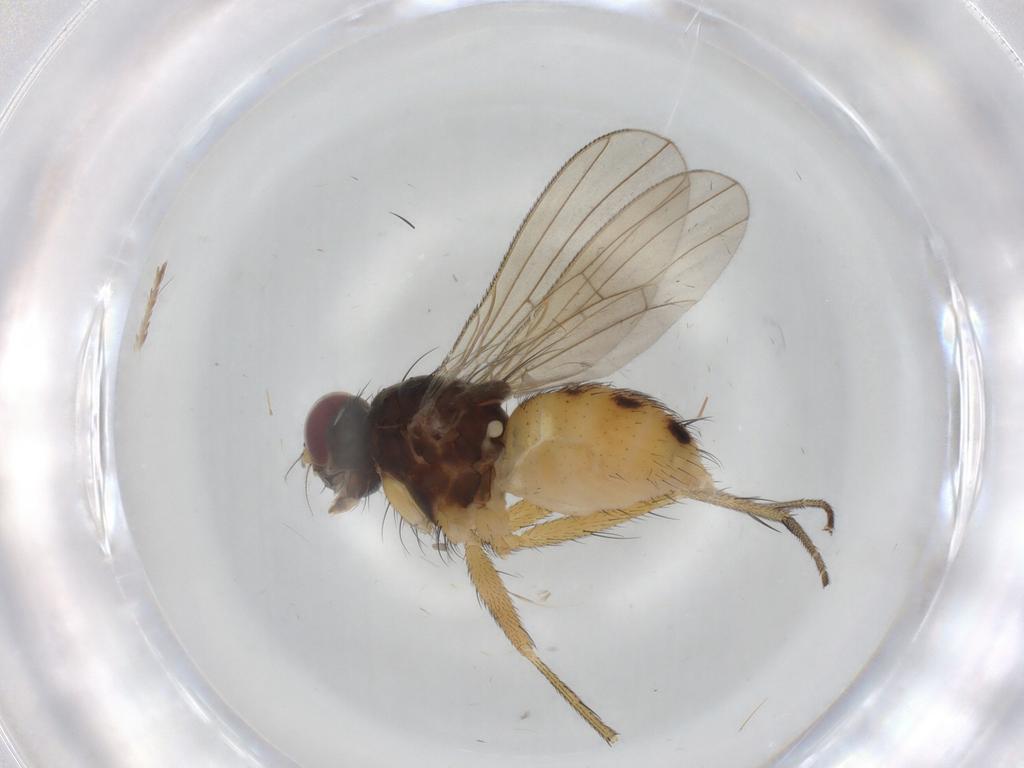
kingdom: Animalia
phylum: Arthropoda
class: Insecta
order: Diptera
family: Muscidae
